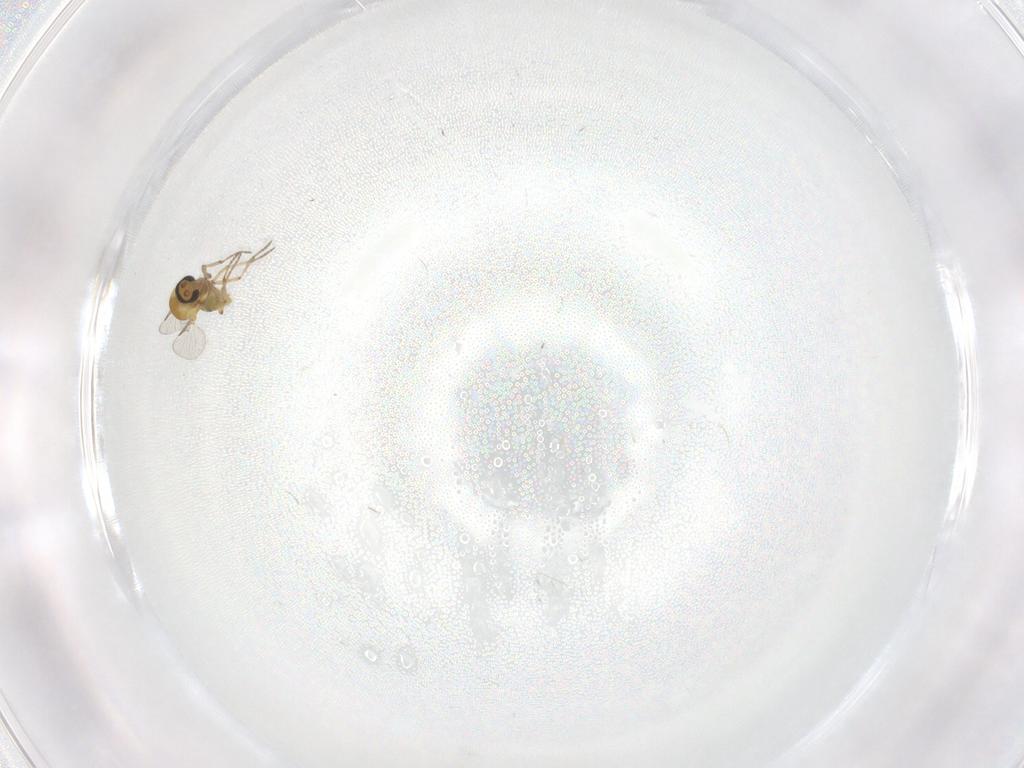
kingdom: Animalia
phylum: Arthropoda
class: Insecta
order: Diptera
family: Ceratopogonidae
